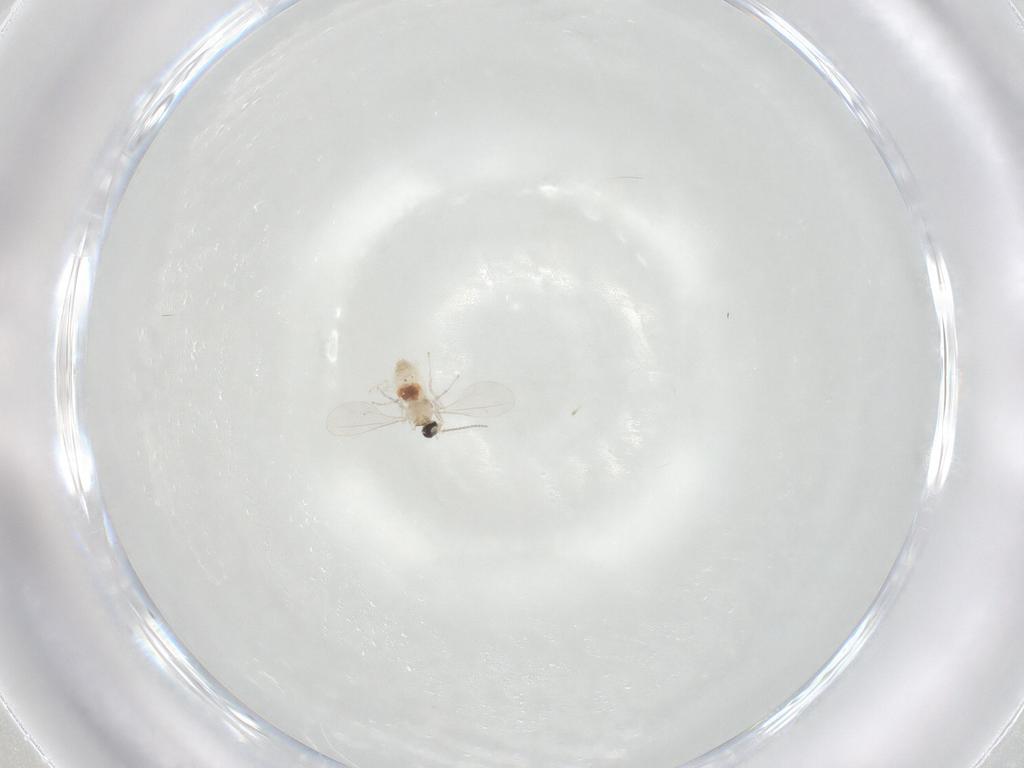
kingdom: Animalia
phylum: Arthropoda
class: Insecta
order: Diptera
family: Cecidomyiidae
